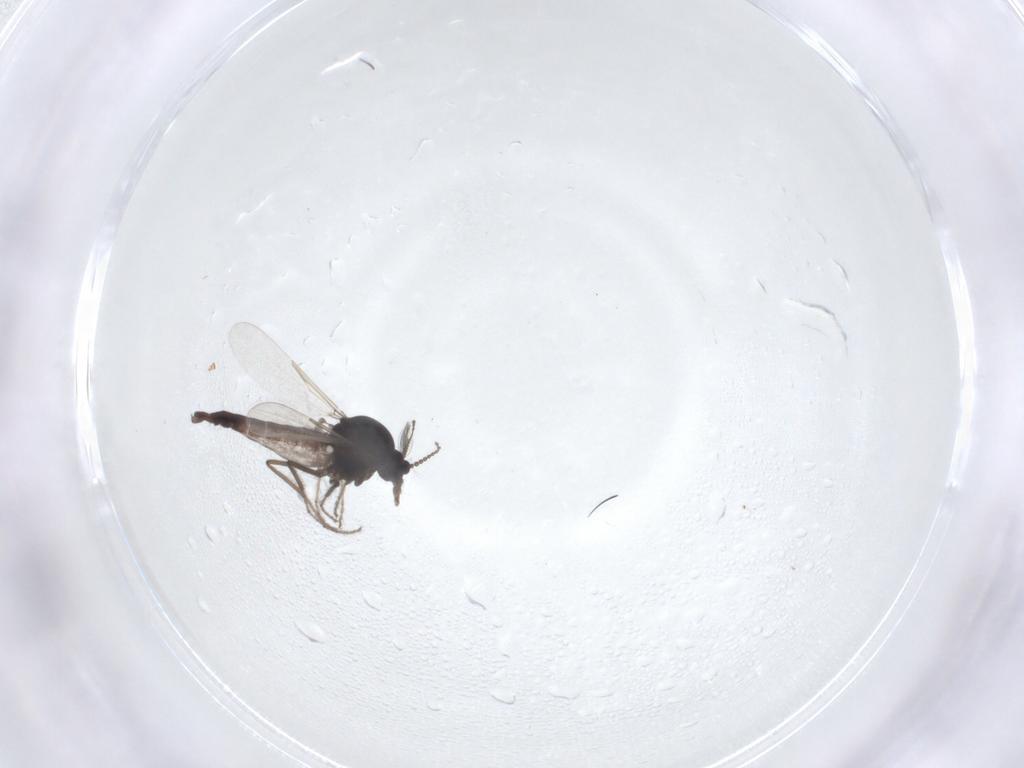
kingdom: Animalia
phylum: Arthropoda
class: Insecta
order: Diptera
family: Ceratopogonidae
